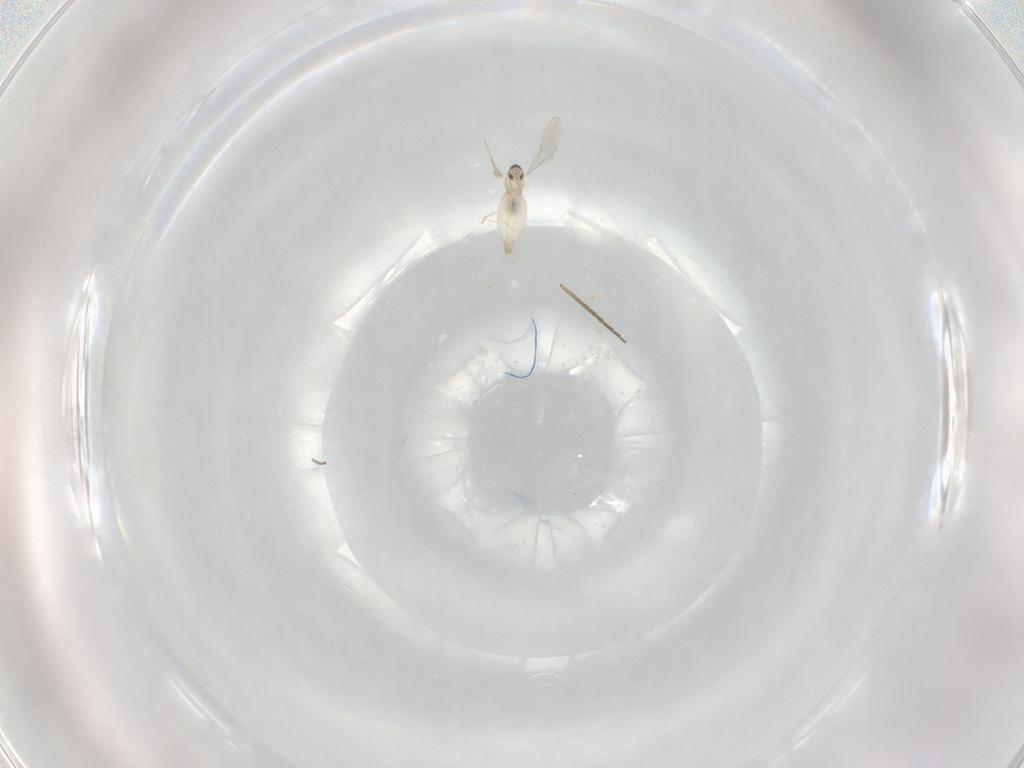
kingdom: Animalia
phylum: Arthropoda
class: Insecta
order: Diptera
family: Cecidomyiidae
